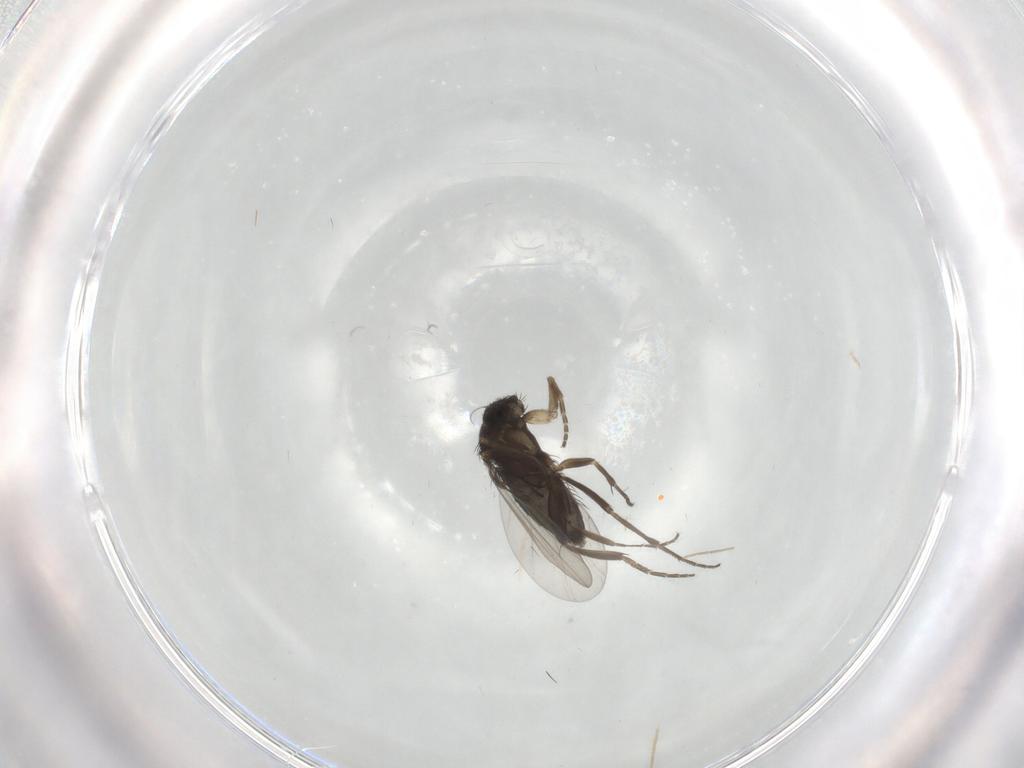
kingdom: Animalia
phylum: Arthropoda
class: Insecta
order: Diptera
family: Phoridae
